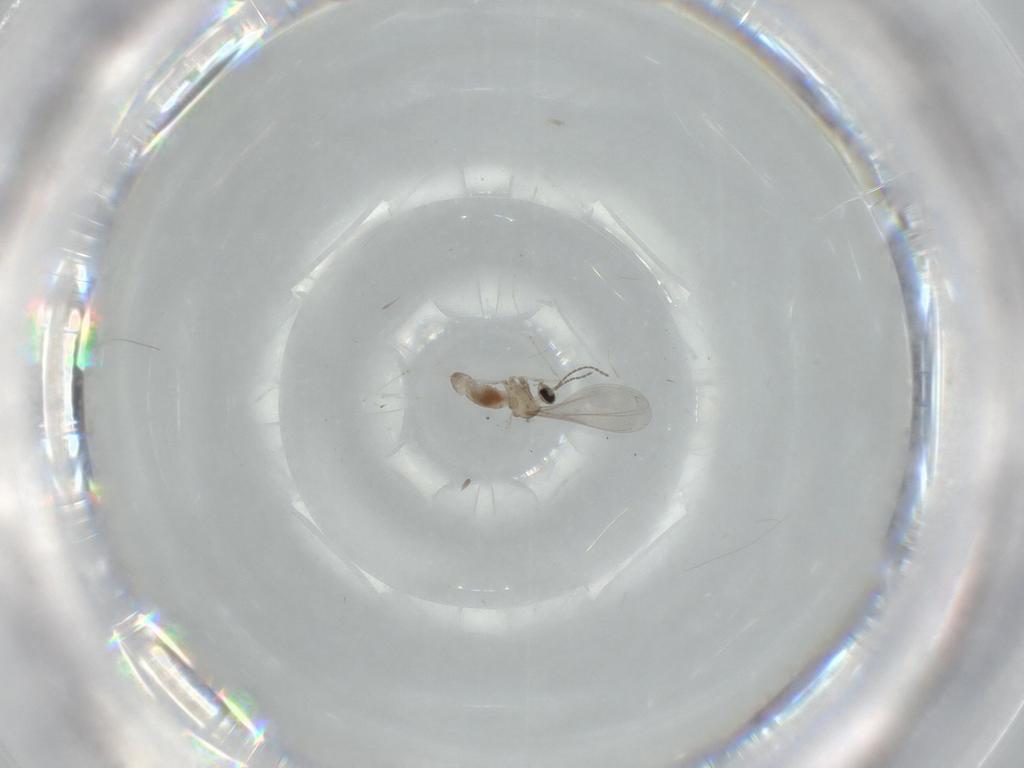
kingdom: Animalia
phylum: Arthropoda
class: Insecta
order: Diptera
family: Cecidomyiidae
